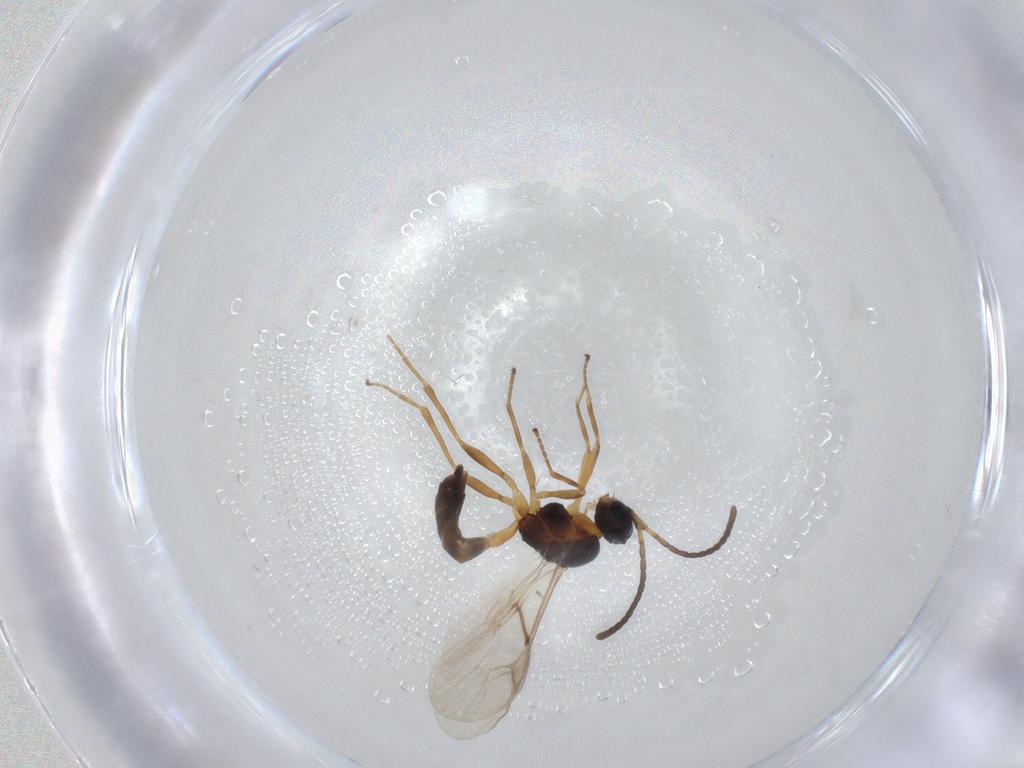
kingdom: Animalia
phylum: Arthropoda
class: Insecta
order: Hymenoptera
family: Braconidae
